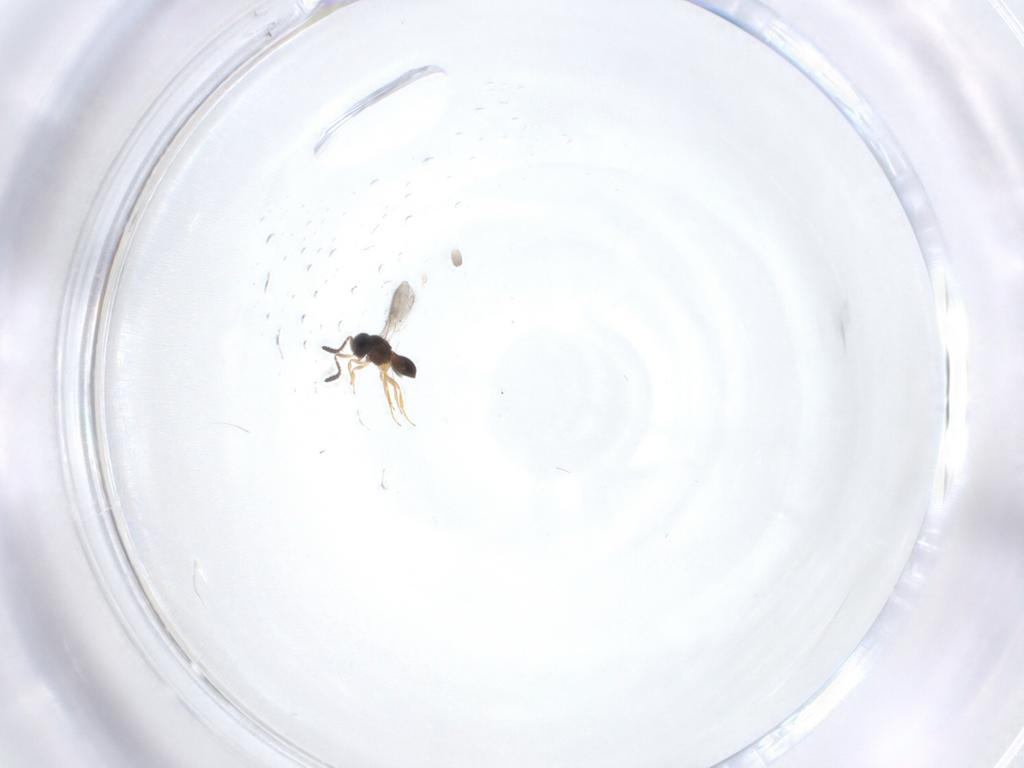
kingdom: Animalia
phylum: Arthropoda
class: Insecta
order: Hymenoptera
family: Scelionidae
